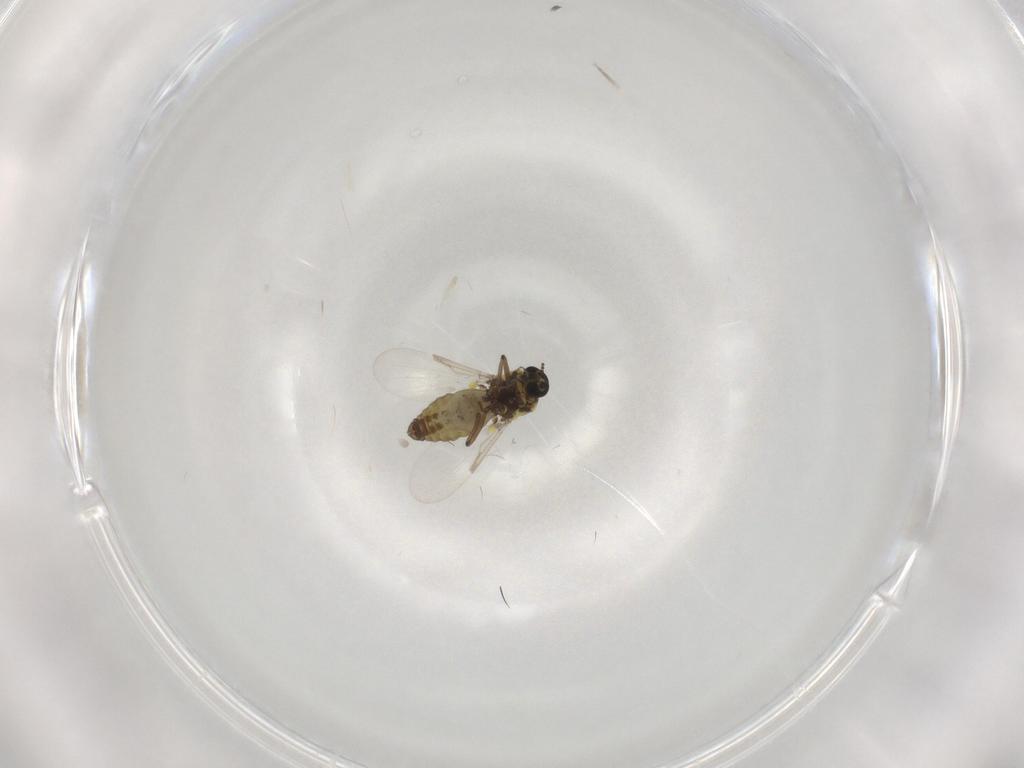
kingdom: Animalia
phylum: Arthropoda
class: Insecta
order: Diptera
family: Ceratopogonidae
